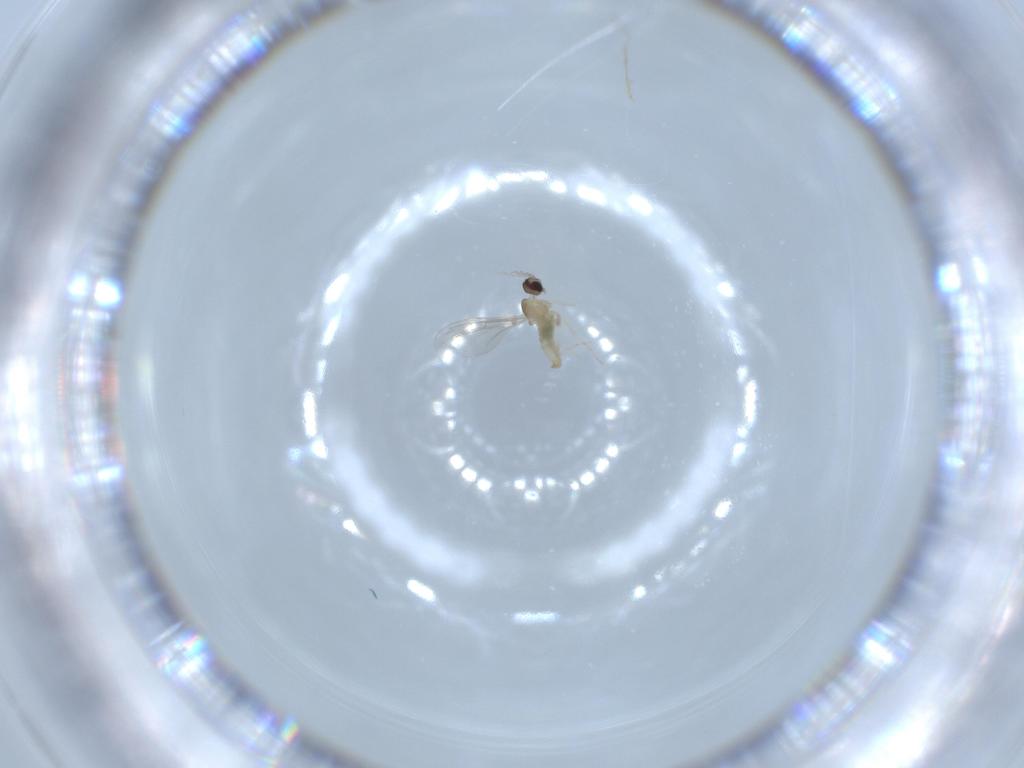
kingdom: Animalia
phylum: Arthropoda
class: Insecta
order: Diptera
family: Cecidomyiidae
